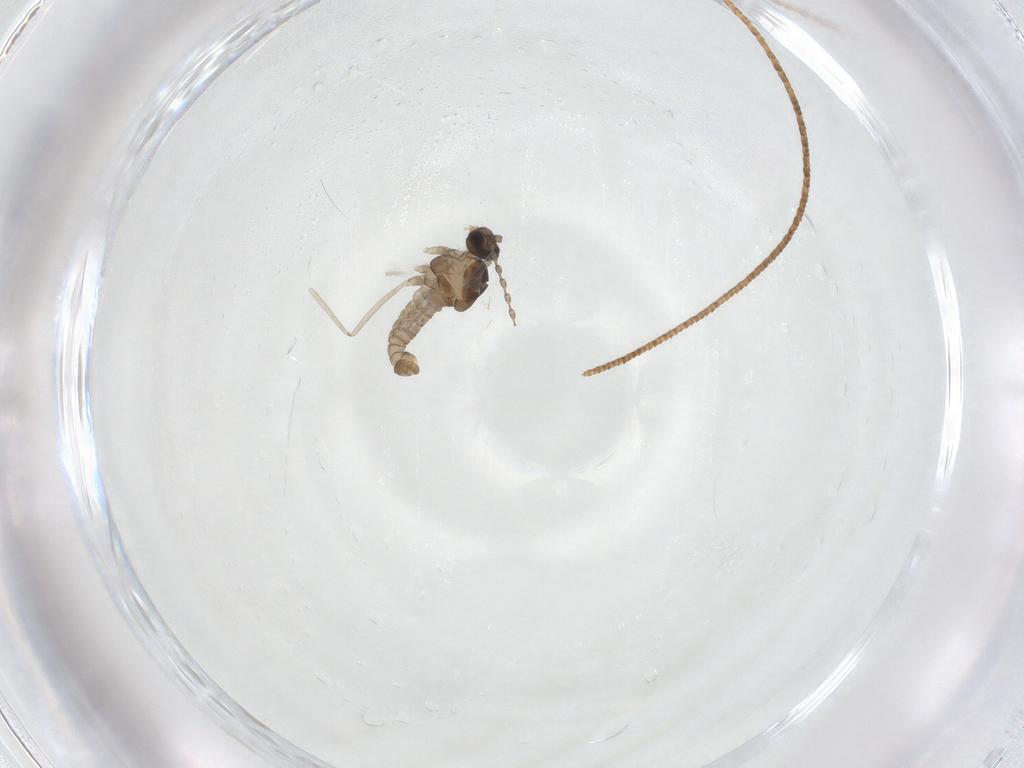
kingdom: Animalia
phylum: Arthropoda
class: Insecta
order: Diptera
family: Cecidomyiidae
